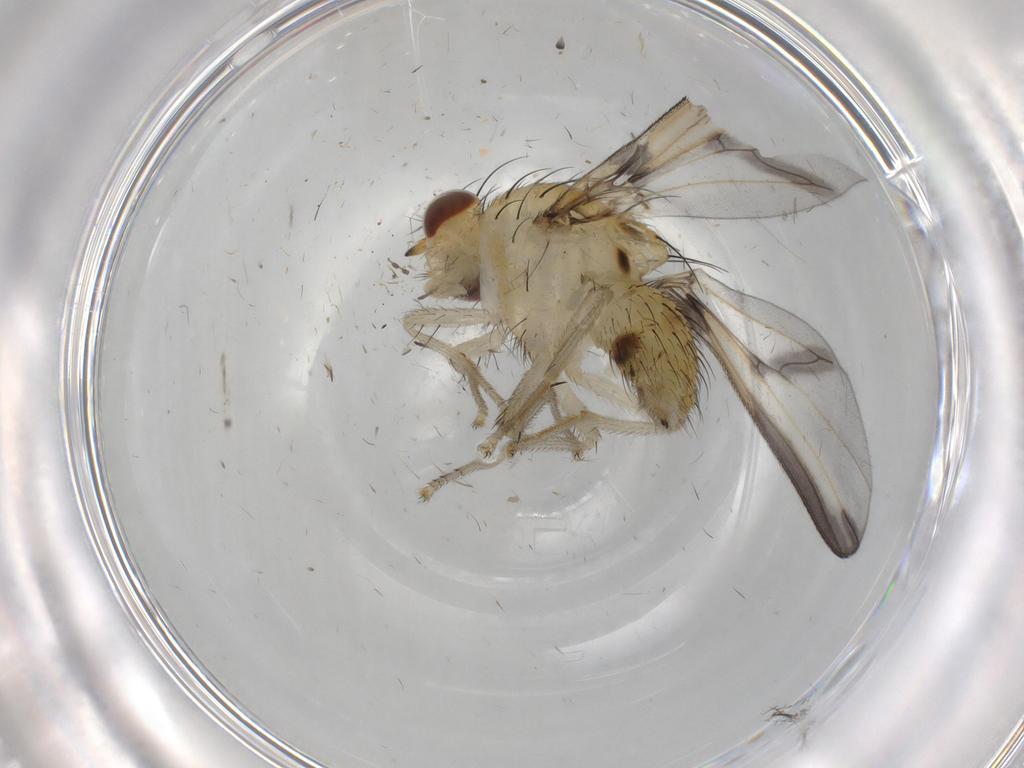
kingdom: Animalia
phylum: Arthropoda
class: Insecta
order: Diptera
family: Lauxaniidae
